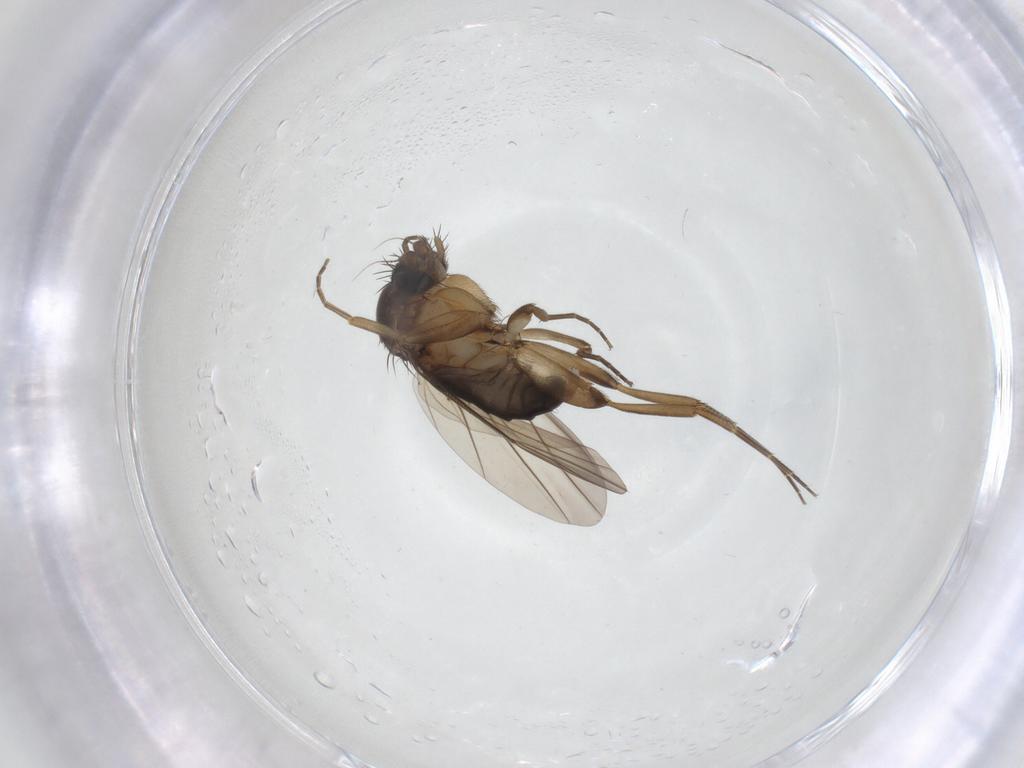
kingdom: Animalia
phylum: Arthropoda
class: Insecta
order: Diptera
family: Phoridae
